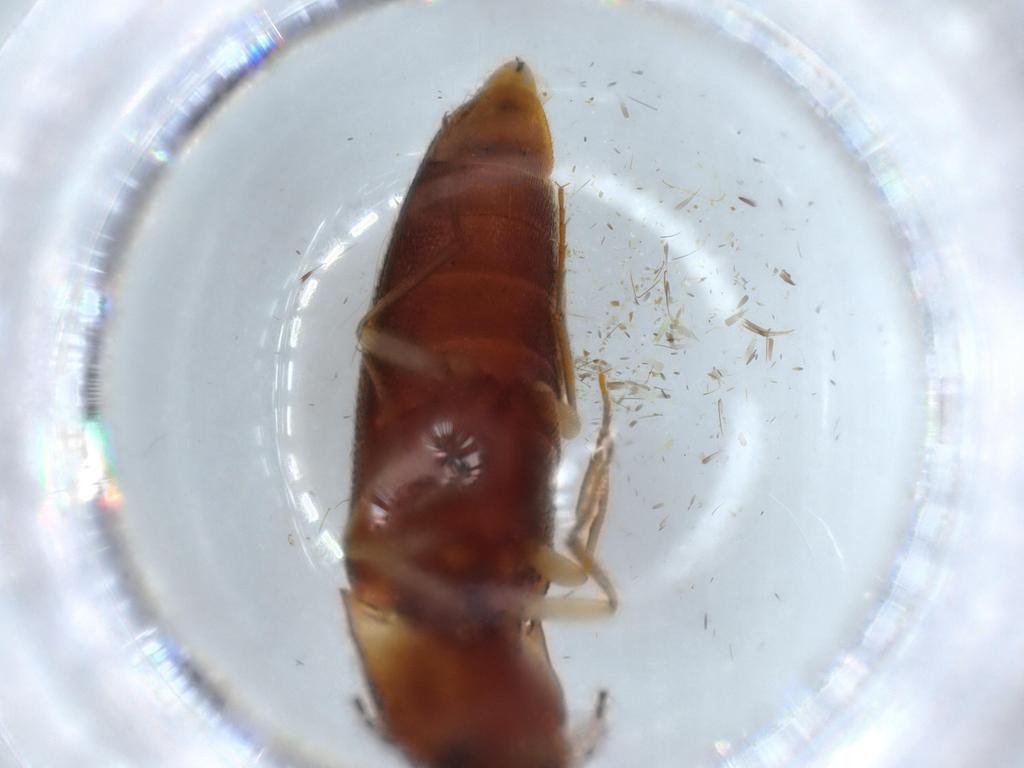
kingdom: Animalia
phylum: Arthropoda
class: Insecta
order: Coleoptera
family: Elateridae
